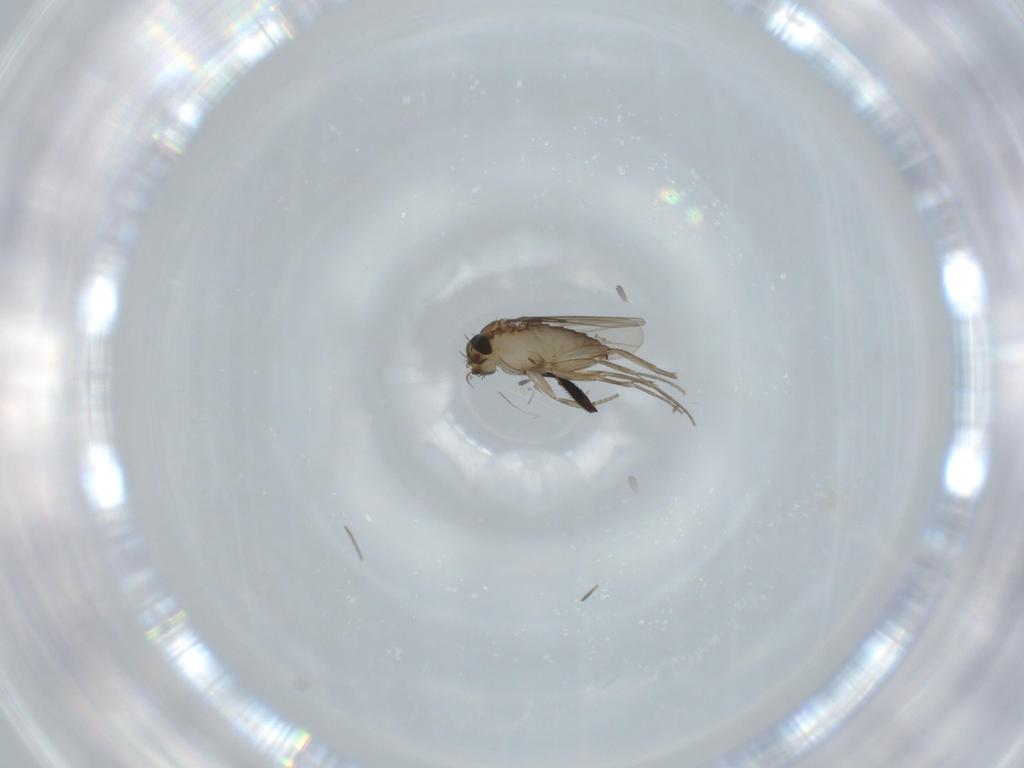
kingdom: Animalia
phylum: Arthropoda
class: Insecta
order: Diptera
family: Phoridae
